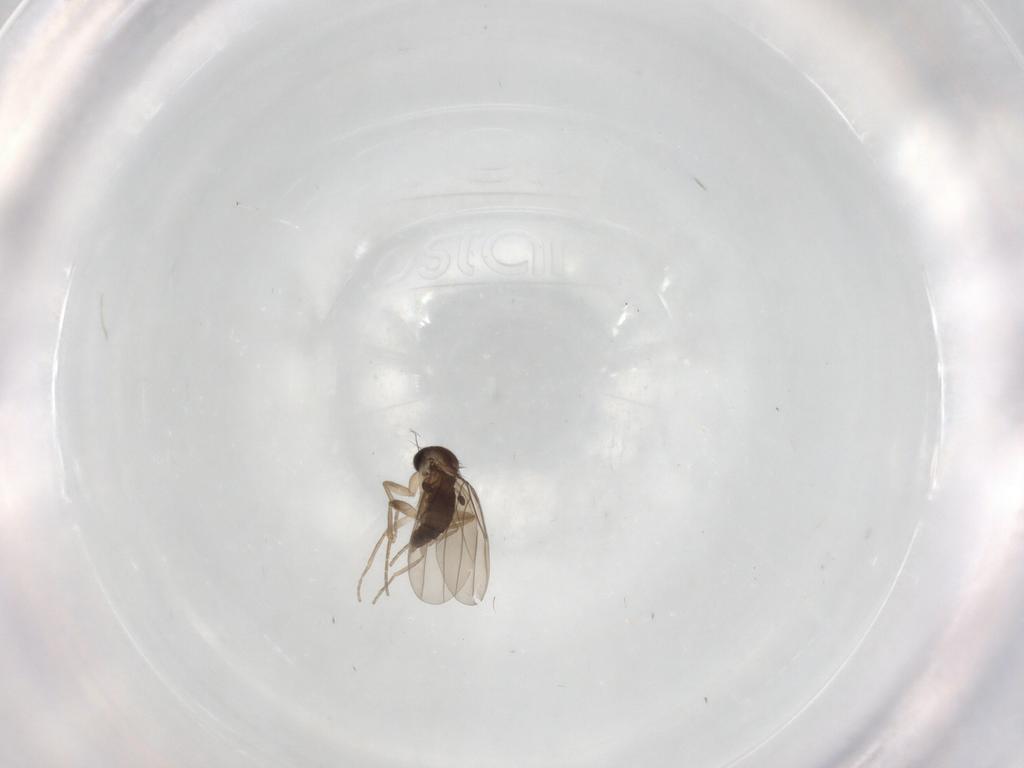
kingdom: Animalia
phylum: Arthropoda
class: Insecta
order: Diptera
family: Phoridae
